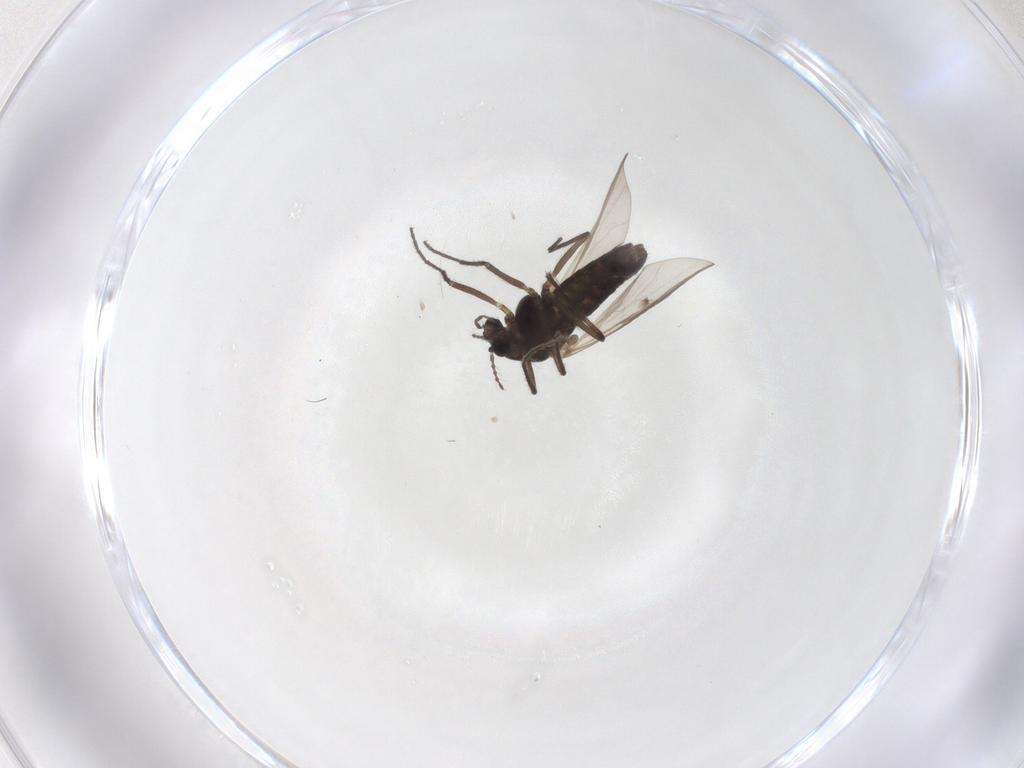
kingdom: Animalia
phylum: Arthropoda
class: Insecta
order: Diptera
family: Chironomidae
